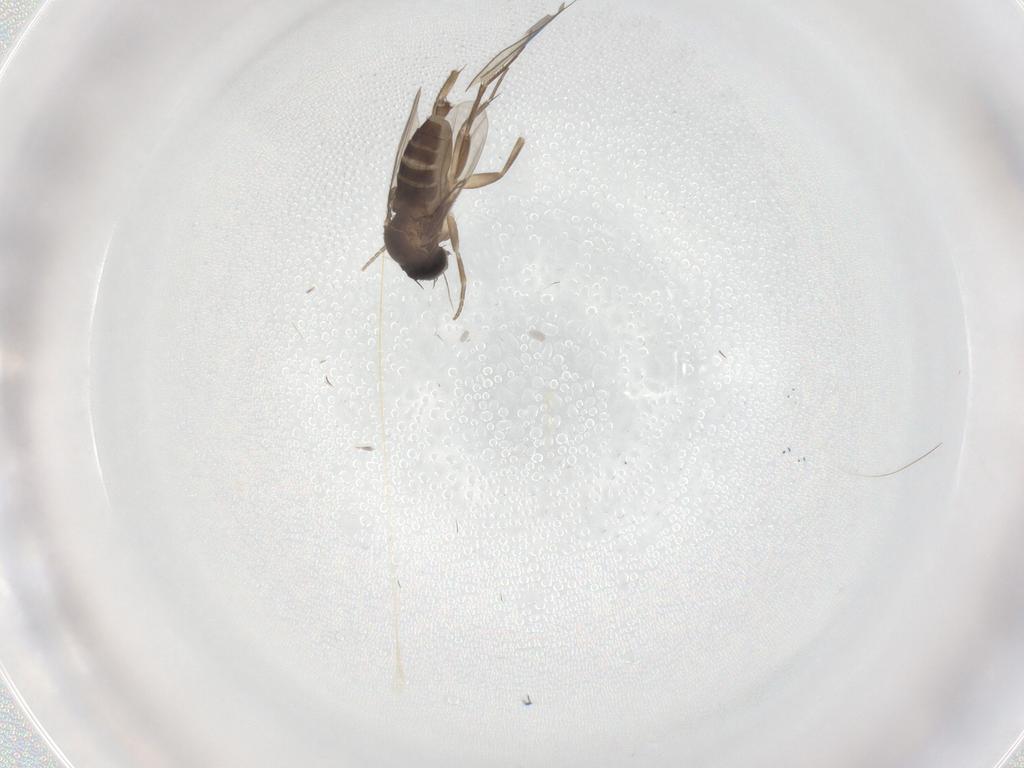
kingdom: Animalia
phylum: Arthropoda
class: Insecta
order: Diptera
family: Phoridae
